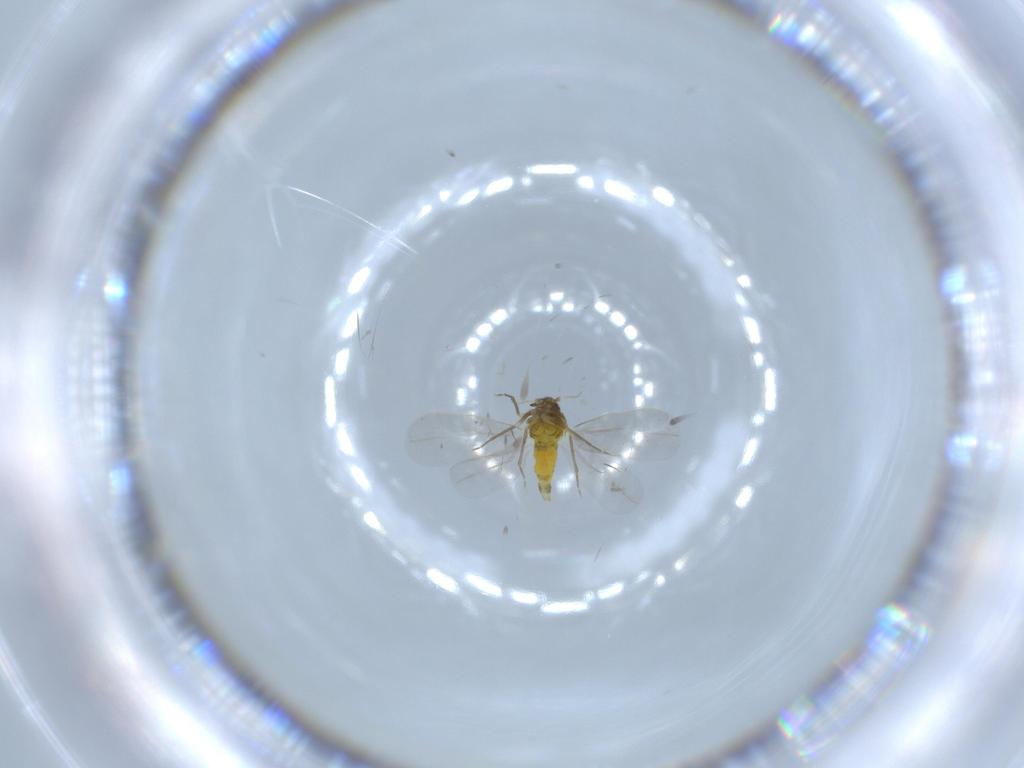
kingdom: Animalia
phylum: Arthropoda
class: Insecta
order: Hemiptera
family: Aleyrodidae
